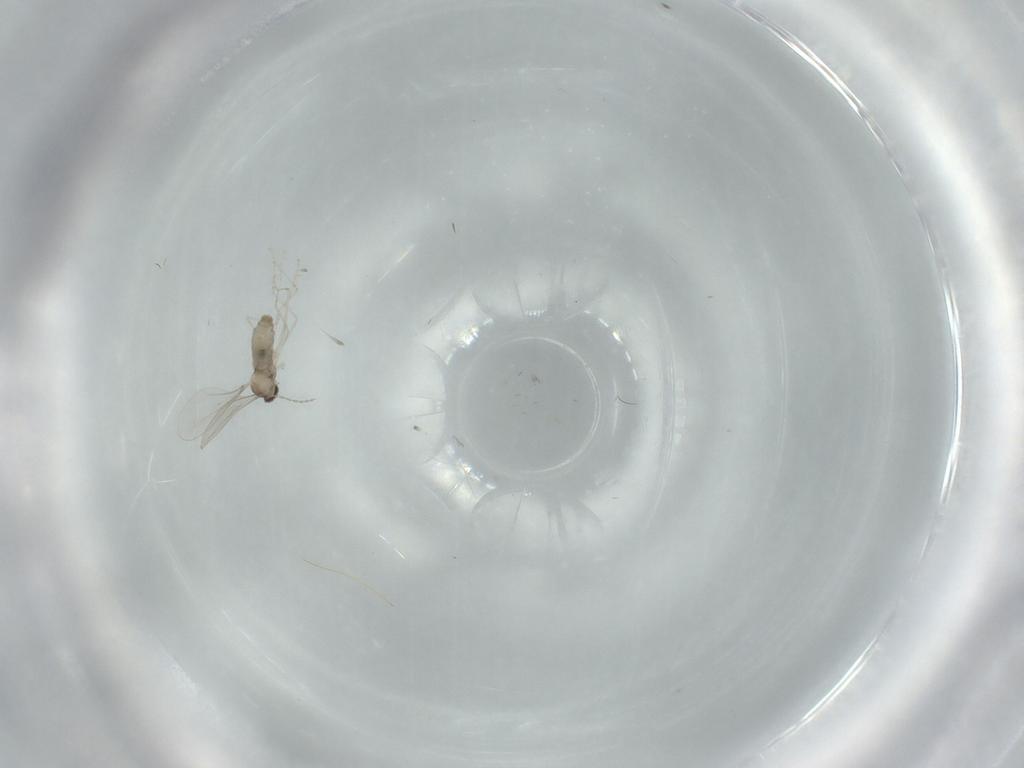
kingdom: Animalia
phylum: Arthropoda
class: Insecta
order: Diptera
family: Cecidomyiidae
